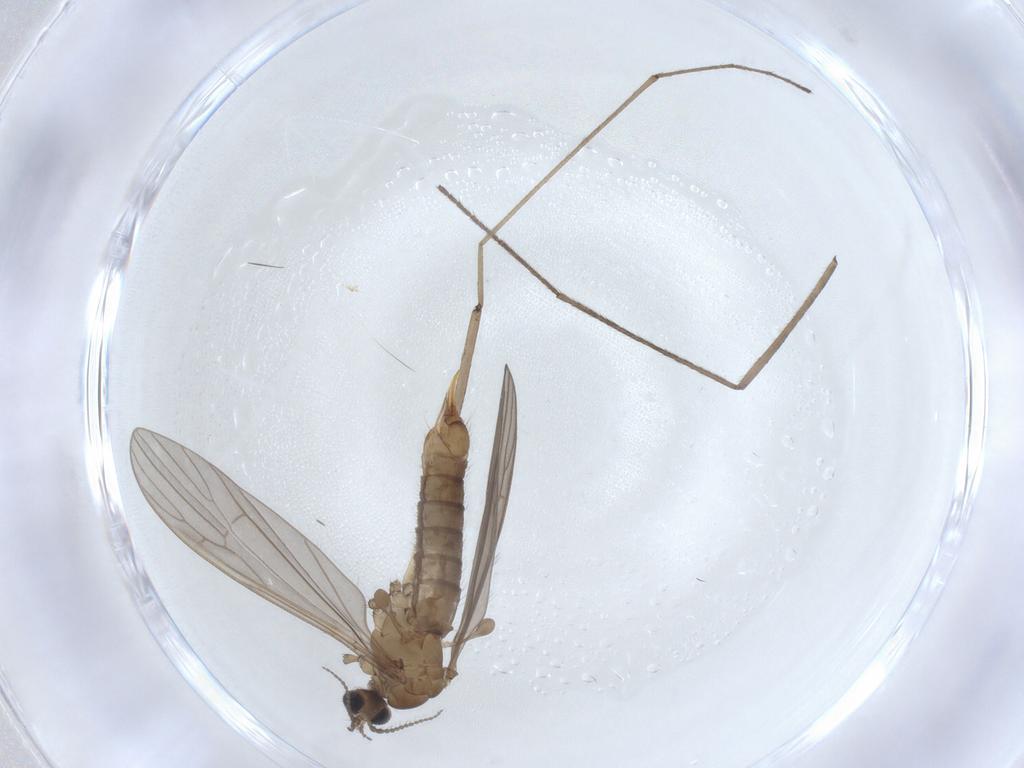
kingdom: Animalia
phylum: Arthropoda
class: Insecta
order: Diptera
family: Limoniidae
